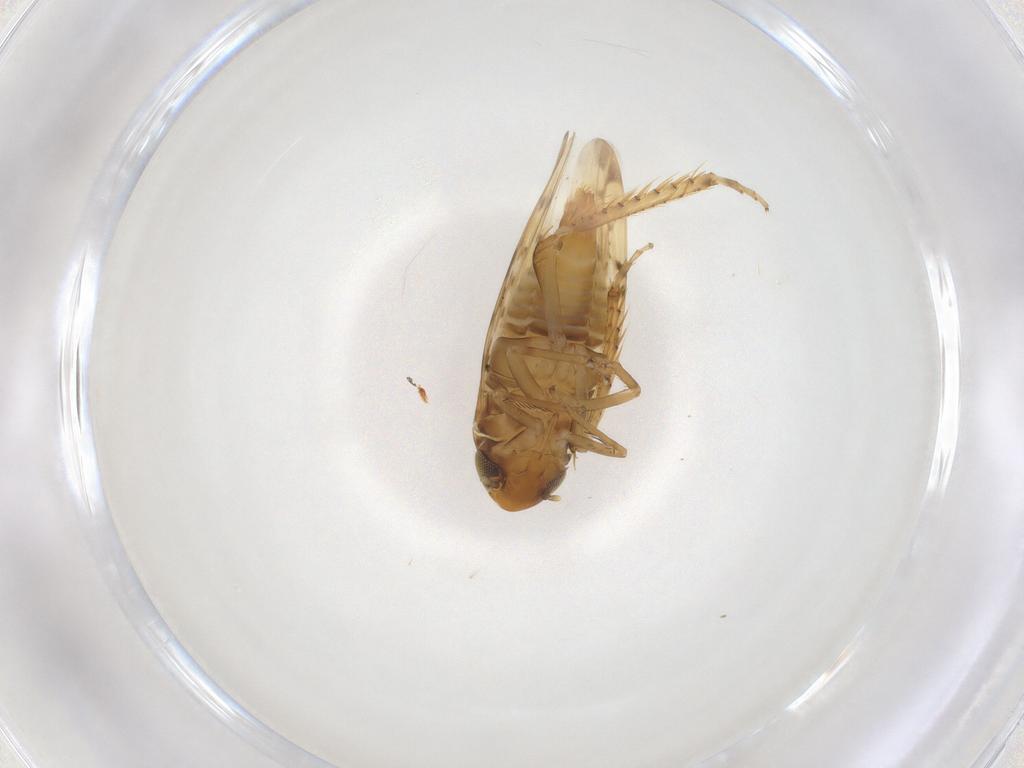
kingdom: Animalia
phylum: Arthropoda
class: Insecta
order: Hemiptera
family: Cicadellidae
